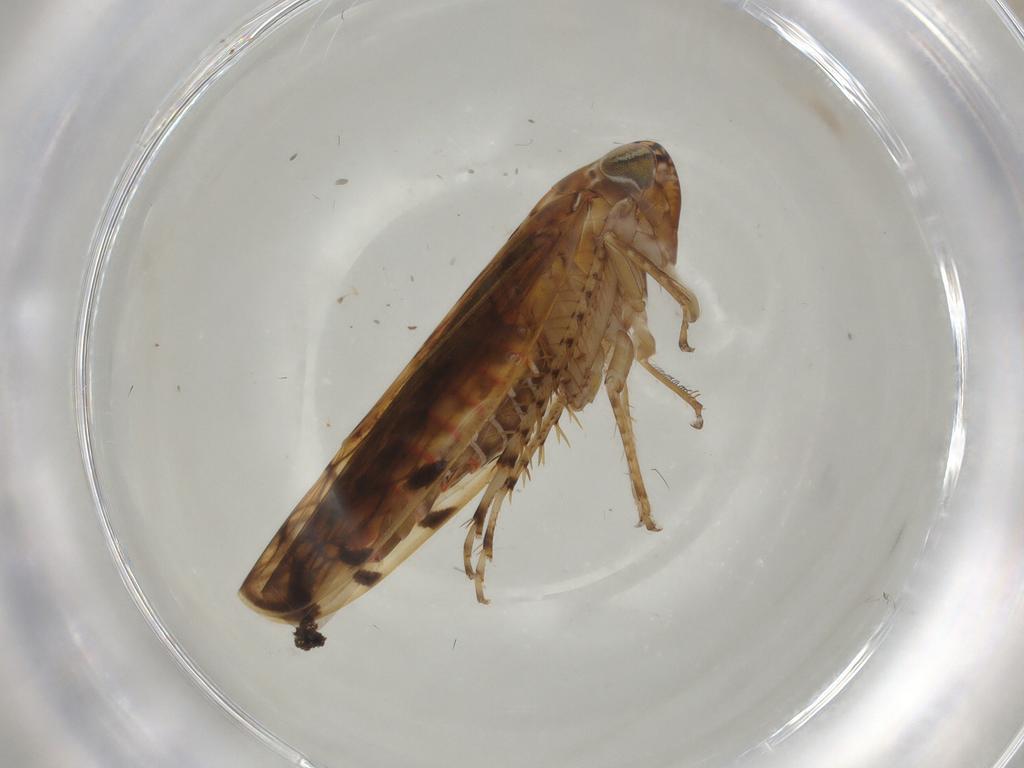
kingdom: Animalia
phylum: Arthropoda
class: Insecta
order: Hemiptera
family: Cicadellidae
